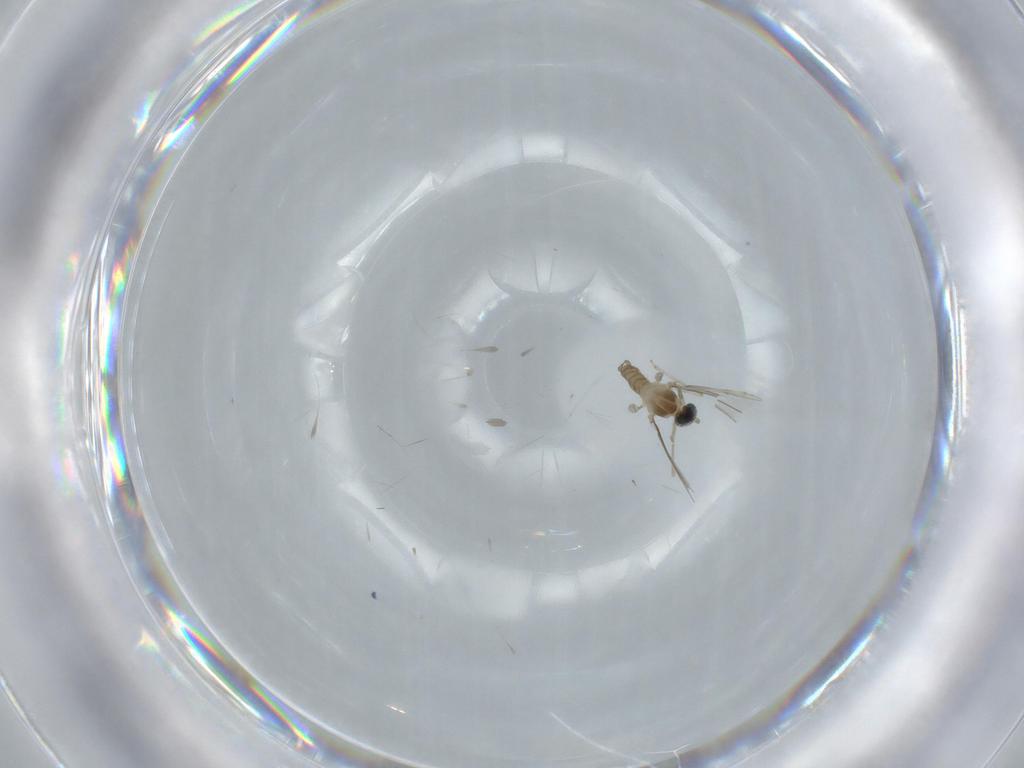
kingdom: Animalia
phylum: Arthropoda
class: Insecta
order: Diptera
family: Cecidomyiidae
